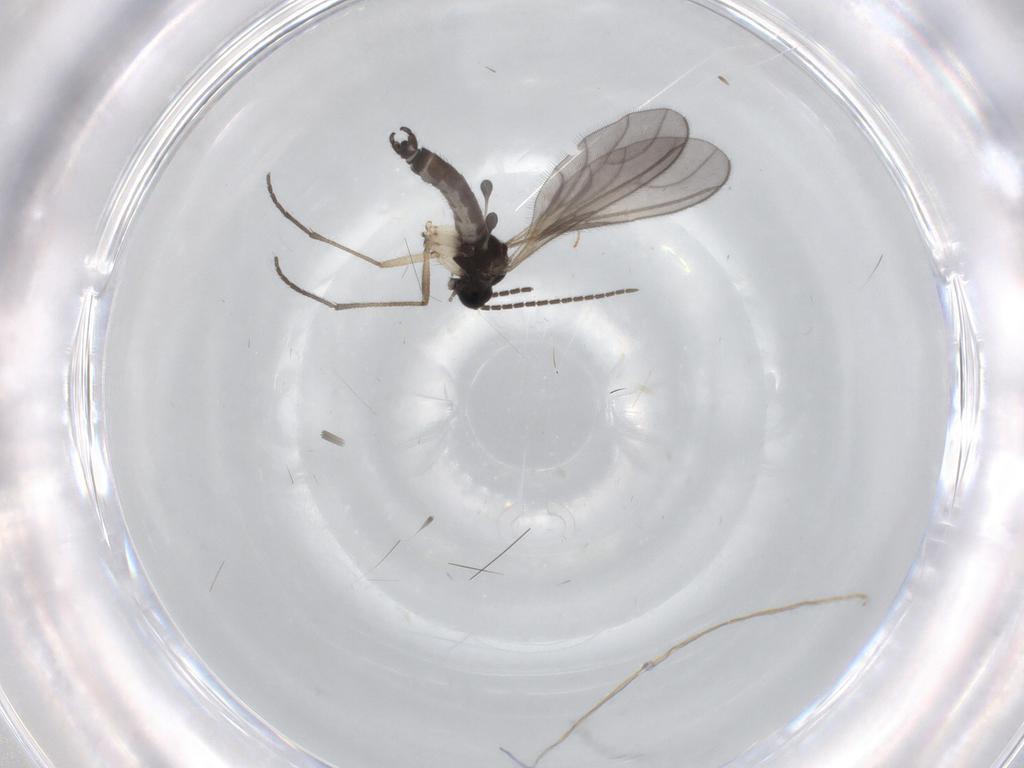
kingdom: Animalia
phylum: Arthropoda
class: Insecta
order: Diptera
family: Sciaridae
